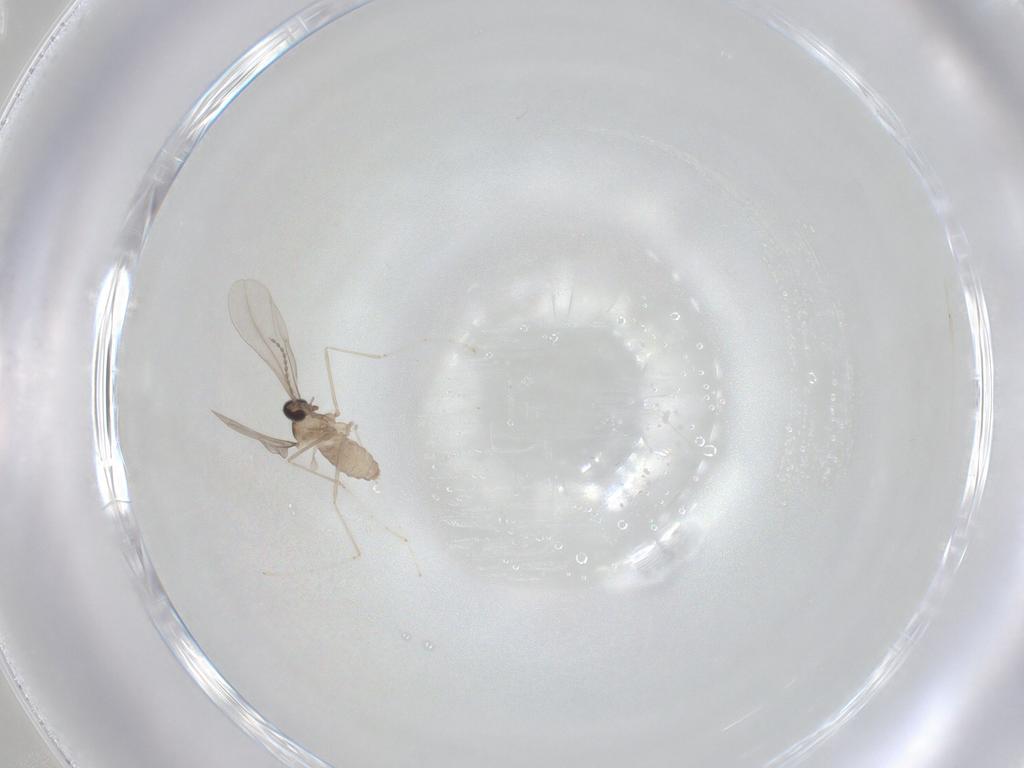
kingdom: Animalia
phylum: Arthropoda
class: Insecta
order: Diptera
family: Cecidomyiidae
